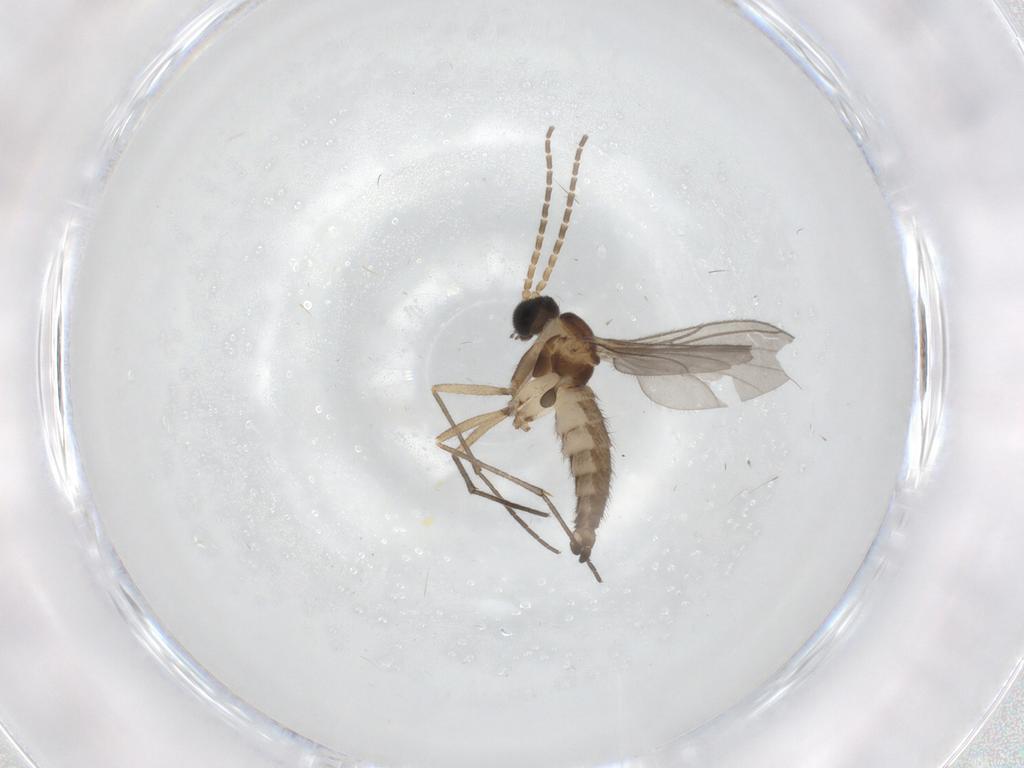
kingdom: Animalia
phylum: Arthropoda
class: Insecta
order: Diptera
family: Sciaridae
